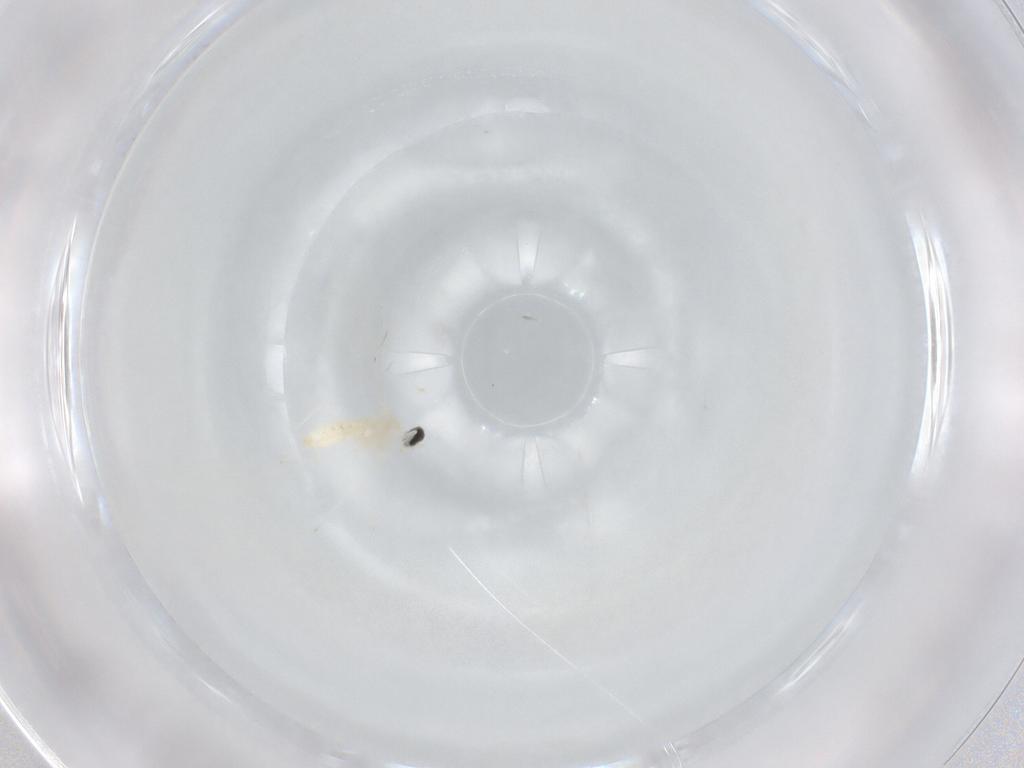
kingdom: Animalia
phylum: Arthropoda
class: Insecta
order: Diptera
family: Cecidomyiidae
